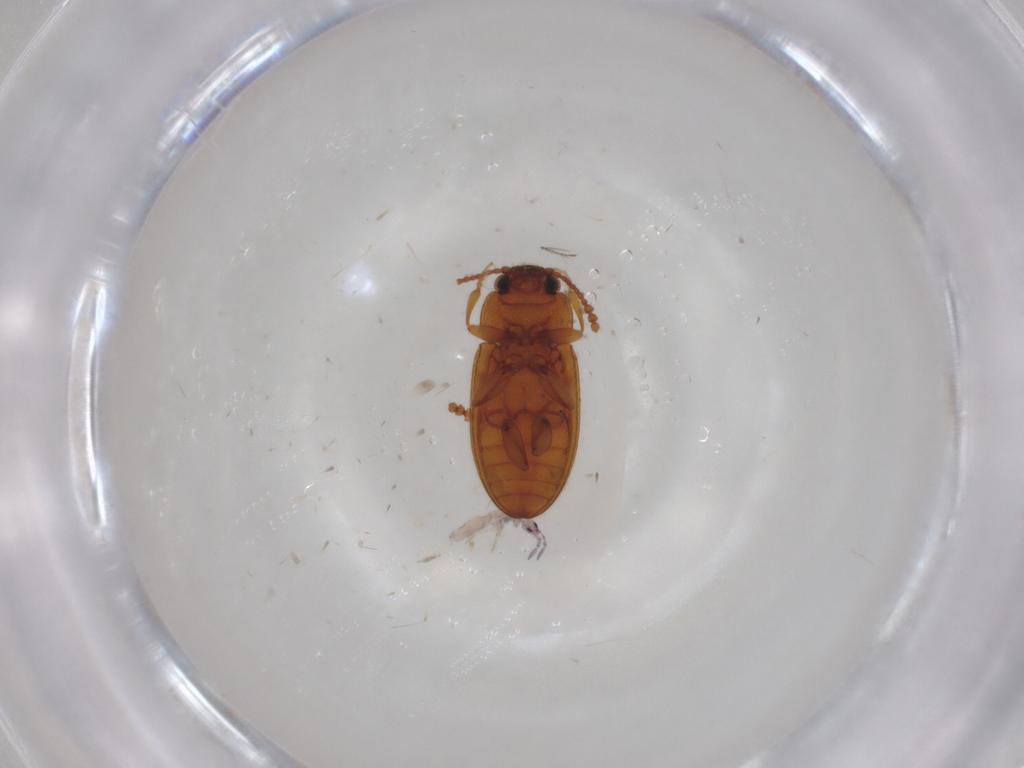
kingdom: Animalia
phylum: Arthropoda
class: Insecta
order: Coleoptera
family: Erotylidae
